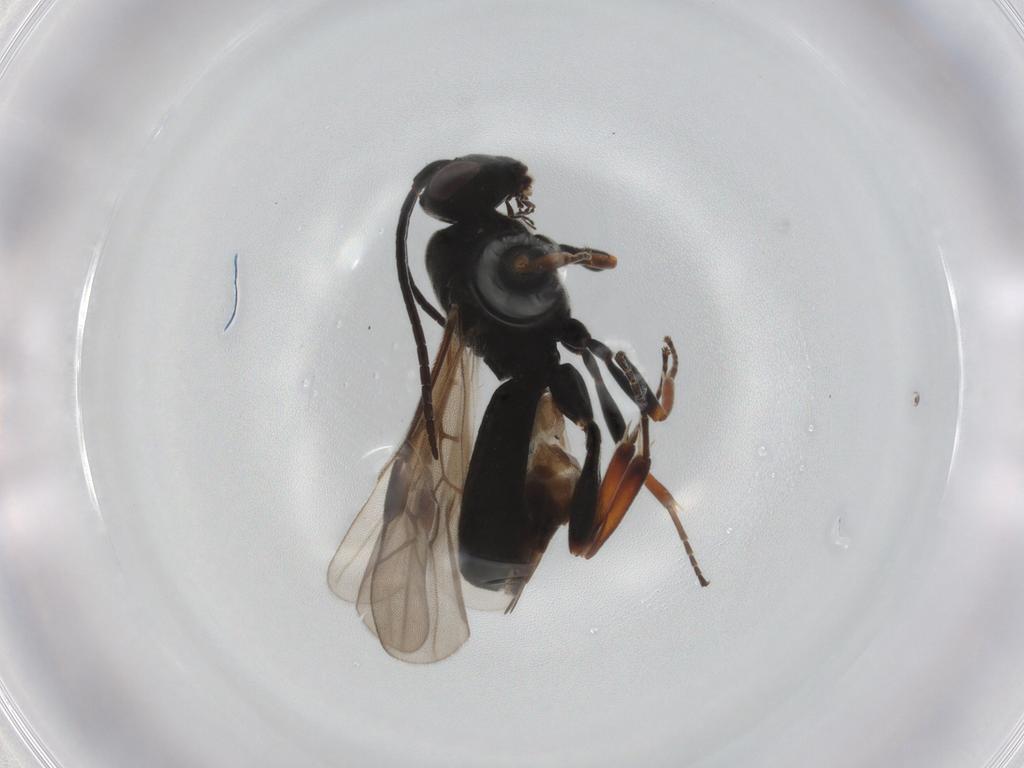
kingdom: Animalia
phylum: Arthropoda
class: Insecta
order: Hymenoptera
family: Braconidae
